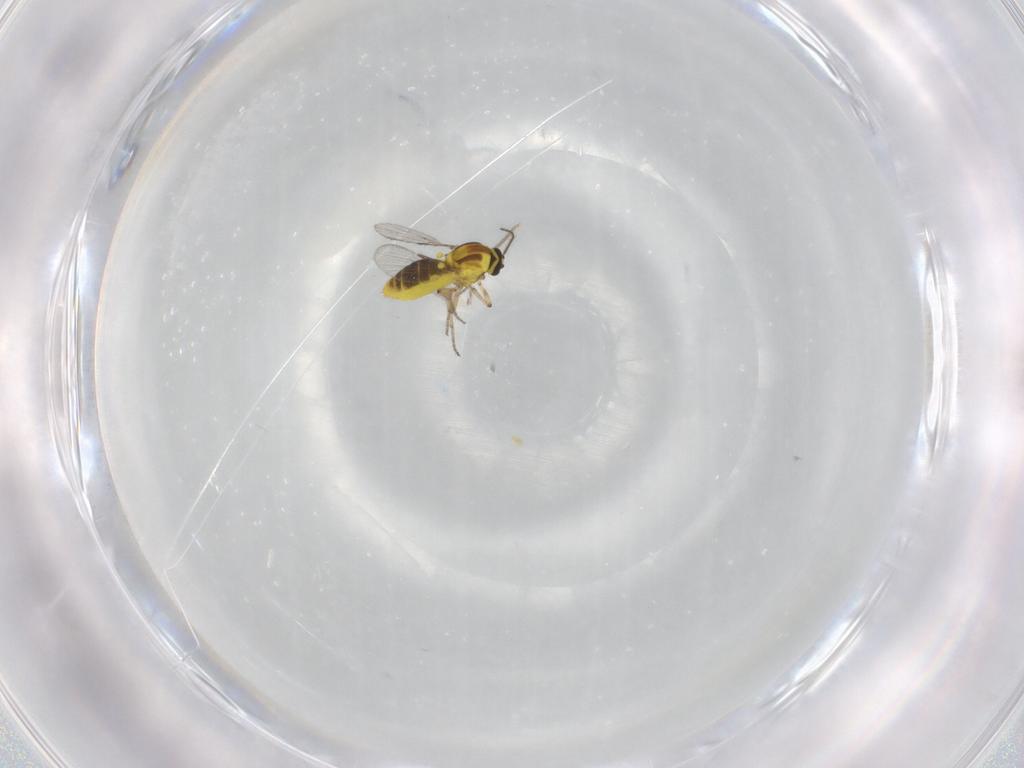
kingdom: Animalia
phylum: Arthropoda
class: Insecta
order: Diptera
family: Ceratopogonidae
